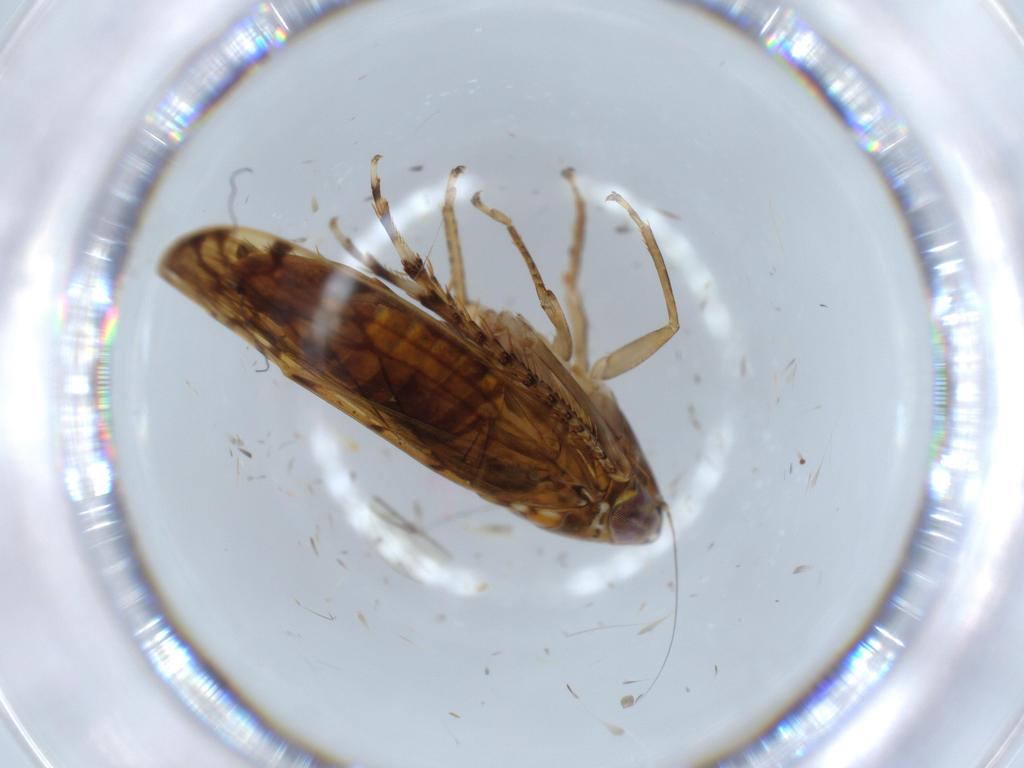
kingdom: Animalia
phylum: Arthropoda
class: Insecta
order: Hemiptera
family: Cicadellidae
